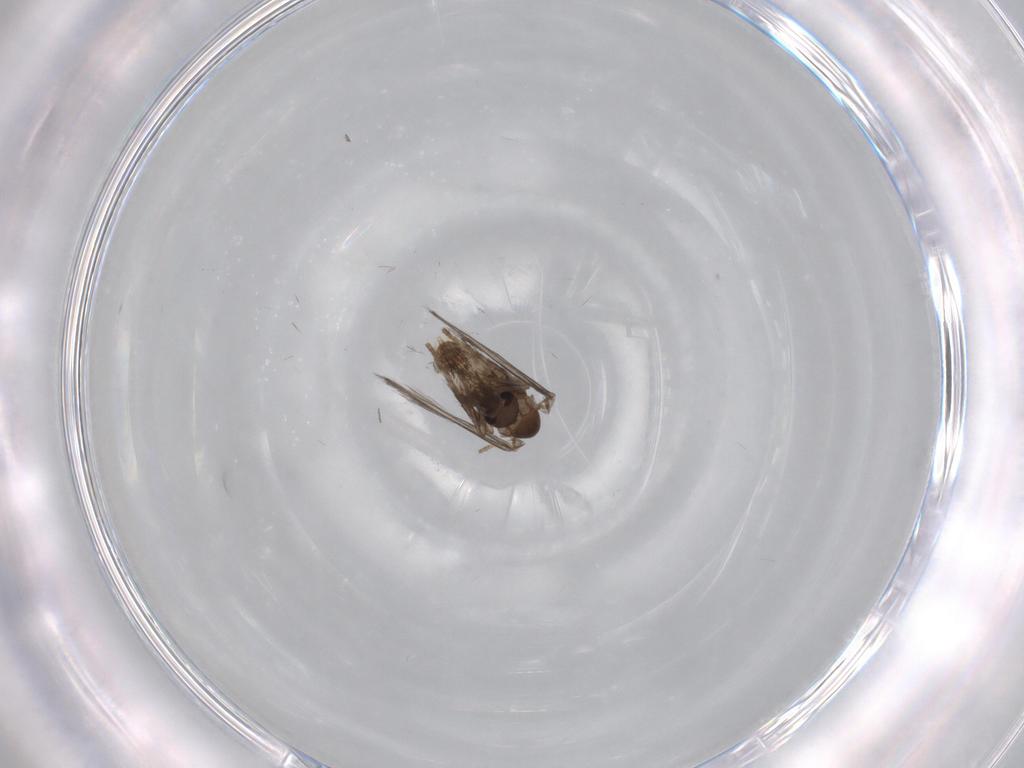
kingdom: Animalia
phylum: Arthropoda
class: Insecta
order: Diptera
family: Psychodidae
